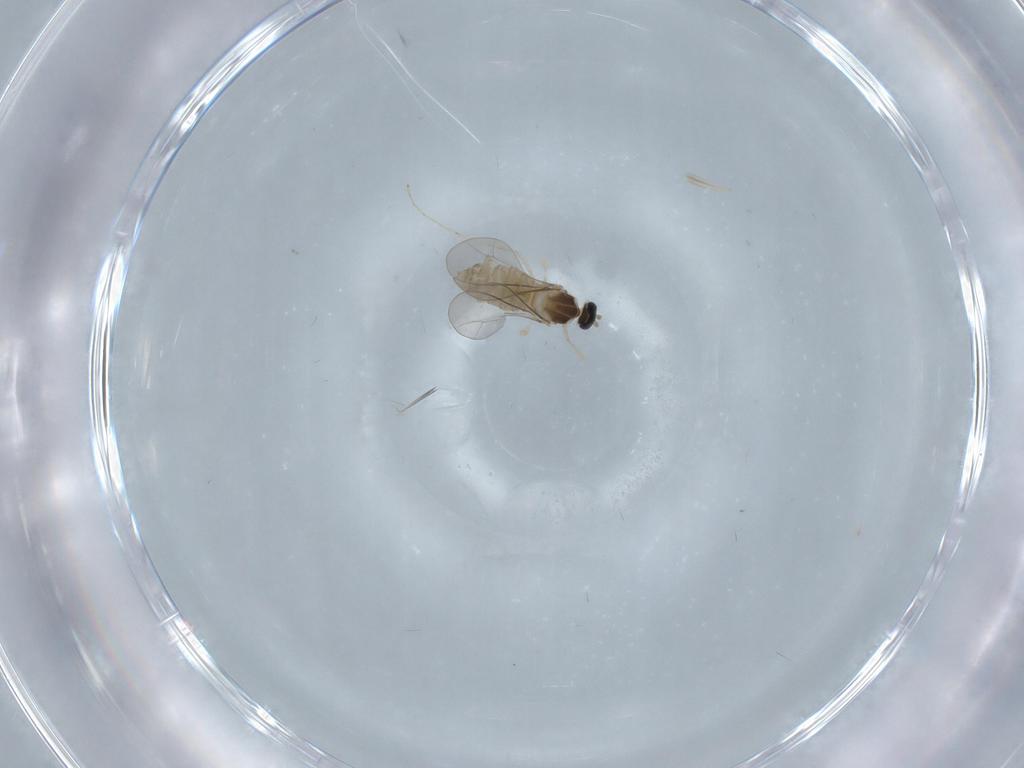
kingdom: Animalia
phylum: Arthropoda
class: Insecta
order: Diptera
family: Cecidomyiidae
